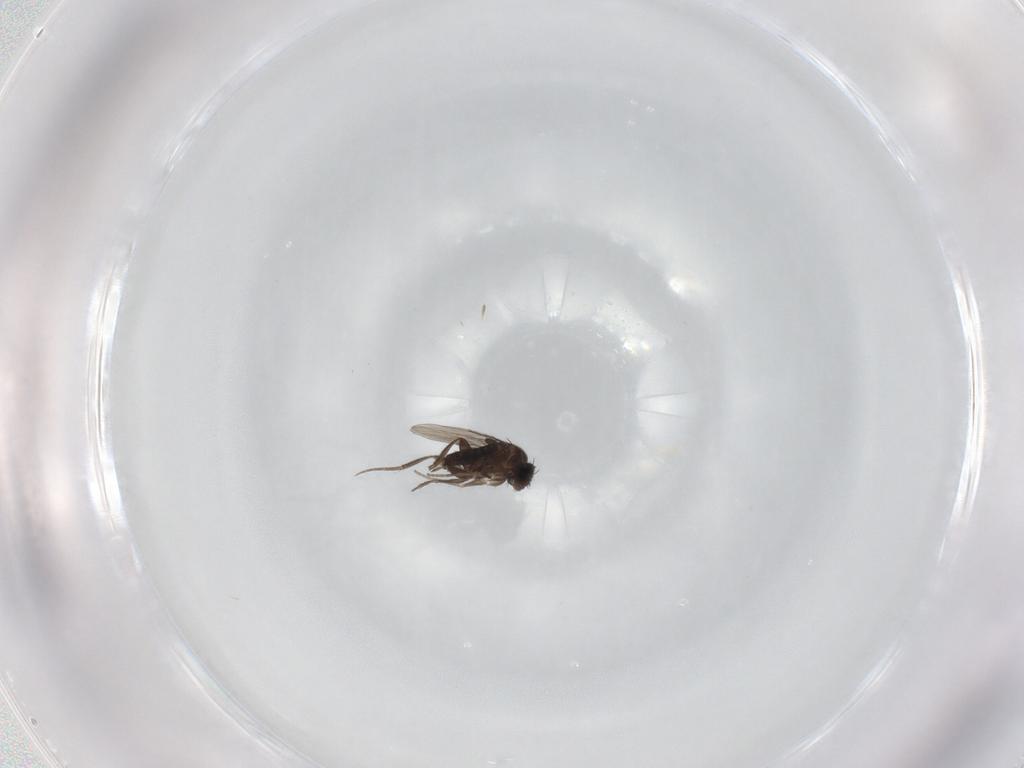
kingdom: Animalia
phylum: Arthropoda
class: Insecta
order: Diptera
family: Phoridae
